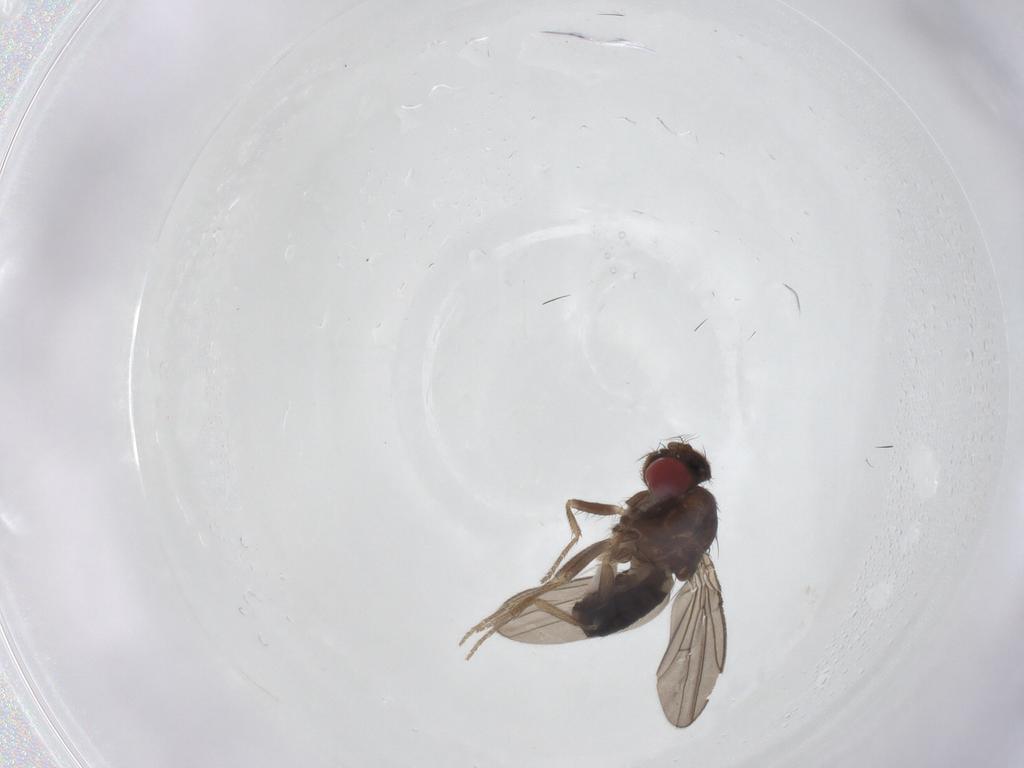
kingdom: Animalia
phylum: Arthropoda
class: Insecta
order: Diptera
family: Drosophilidae
